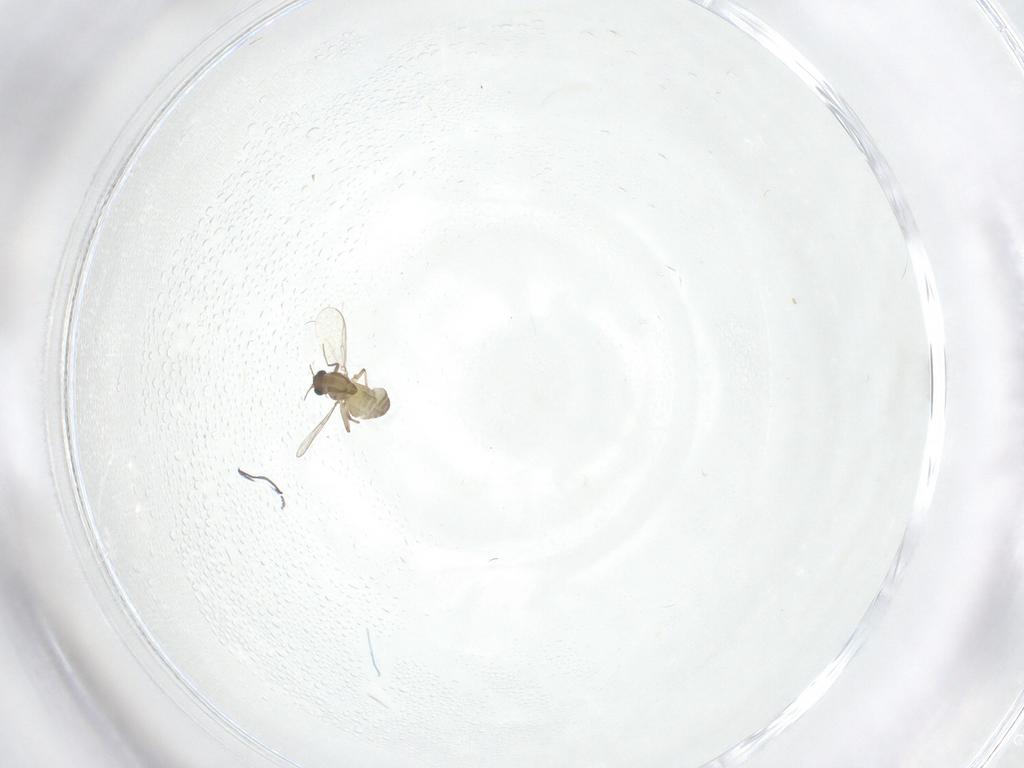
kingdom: Animalia
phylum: Arthropoda
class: Insecta
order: Diptera
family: Chironomidae
